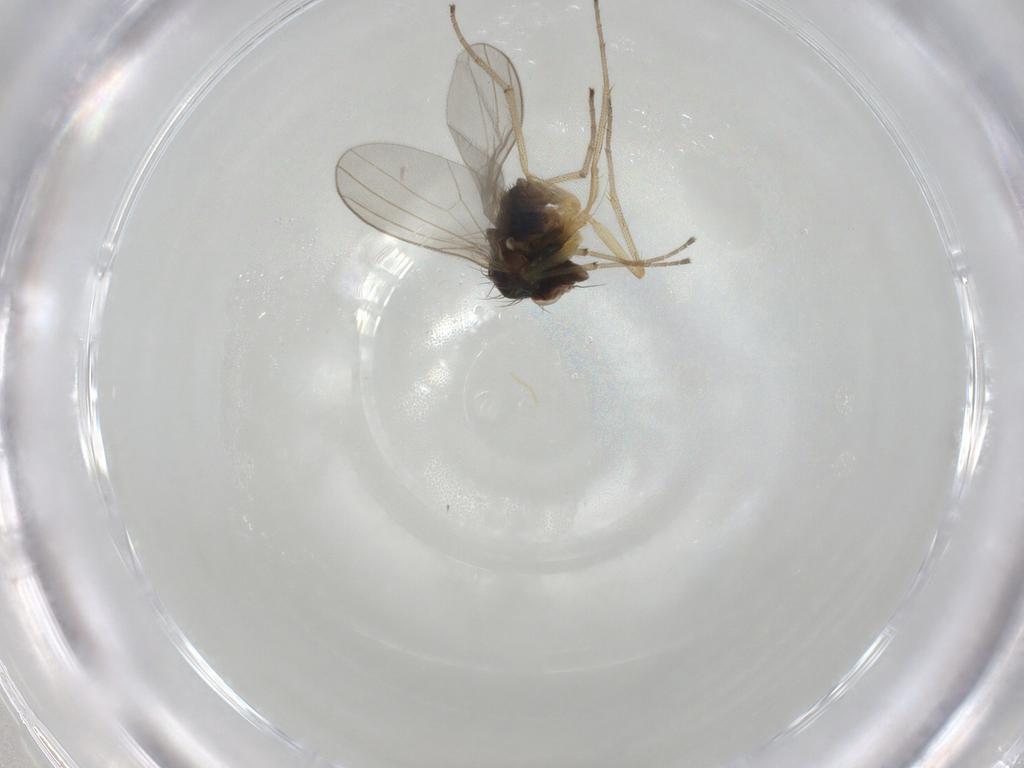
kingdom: Animalia
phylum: Arthropoda
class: Insecta
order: Diptera
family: Dolichopodidae
